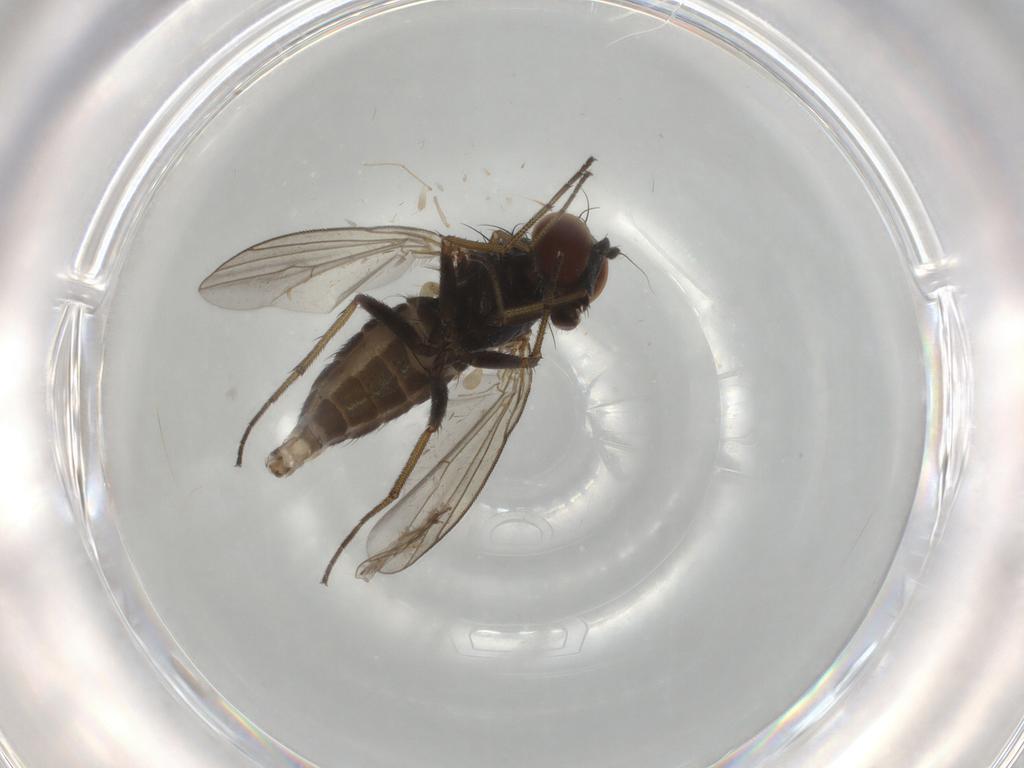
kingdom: Animalia
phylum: Arthropoda
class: Insecta
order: Diptera
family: Dolichopodidae
